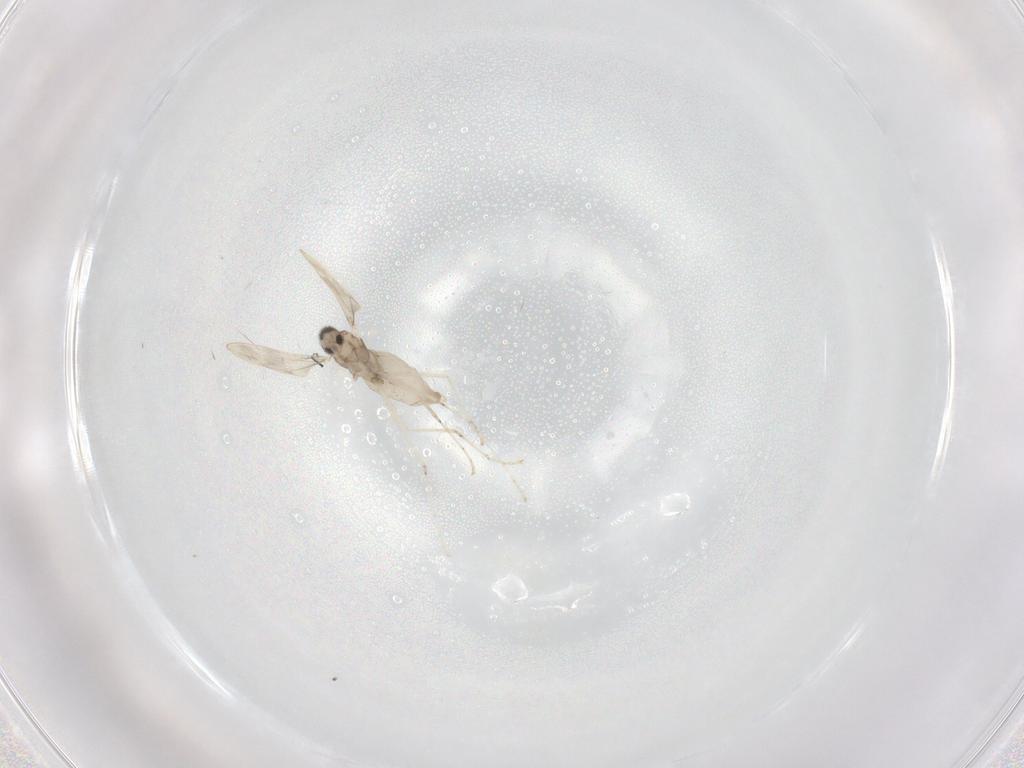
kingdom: Animalia
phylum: Arthropoda
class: Insecta
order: Diptera
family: Cecidomyiidae
